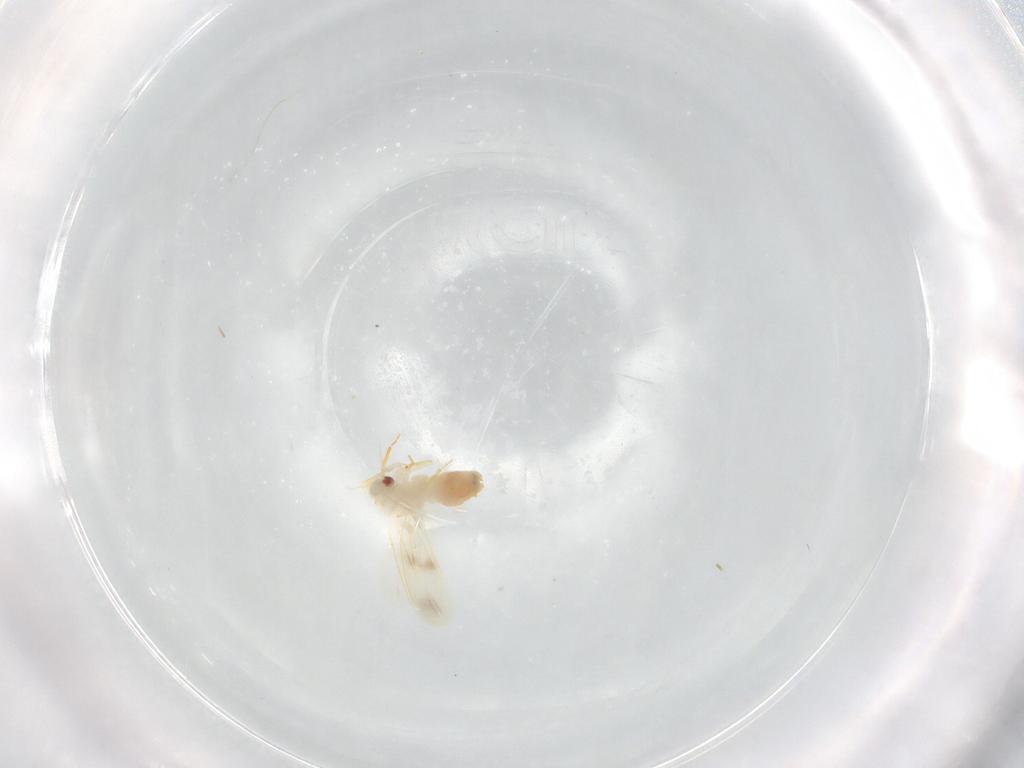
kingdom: Animalia
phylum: Arthropoda
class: Insecta
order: Hemiptera
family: Aleyrodidae
